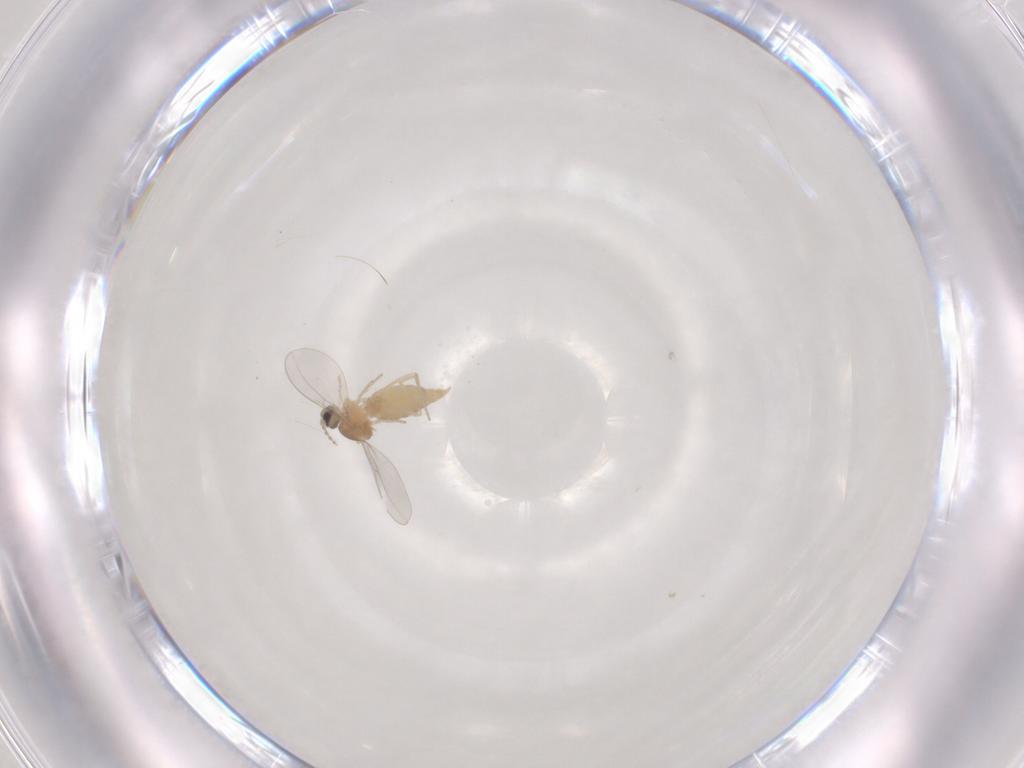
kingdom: Animalia
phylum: Arthropoda
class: Insecta
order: Diptera
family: Cecidomyiidae
